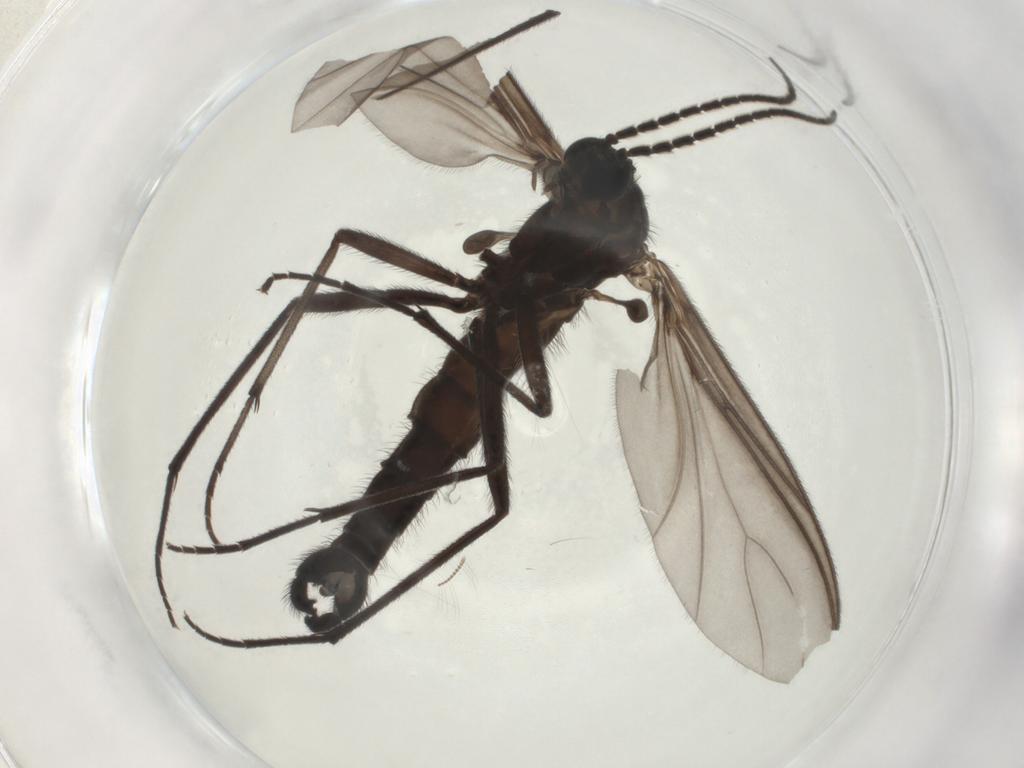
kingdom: Animalia
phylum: Arthropoda
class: Insecta
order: Diptera
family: Chironomidae
